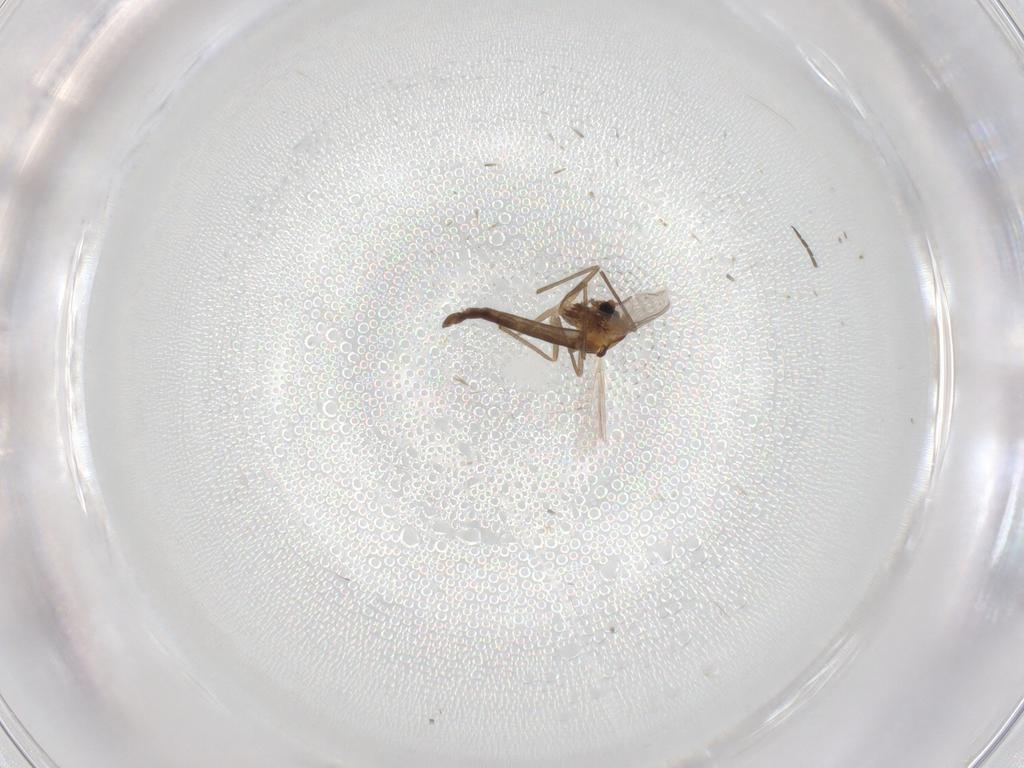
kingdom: Animalia
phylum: Arthropoda
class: Insecta
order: Diptera
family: Chironomidae
